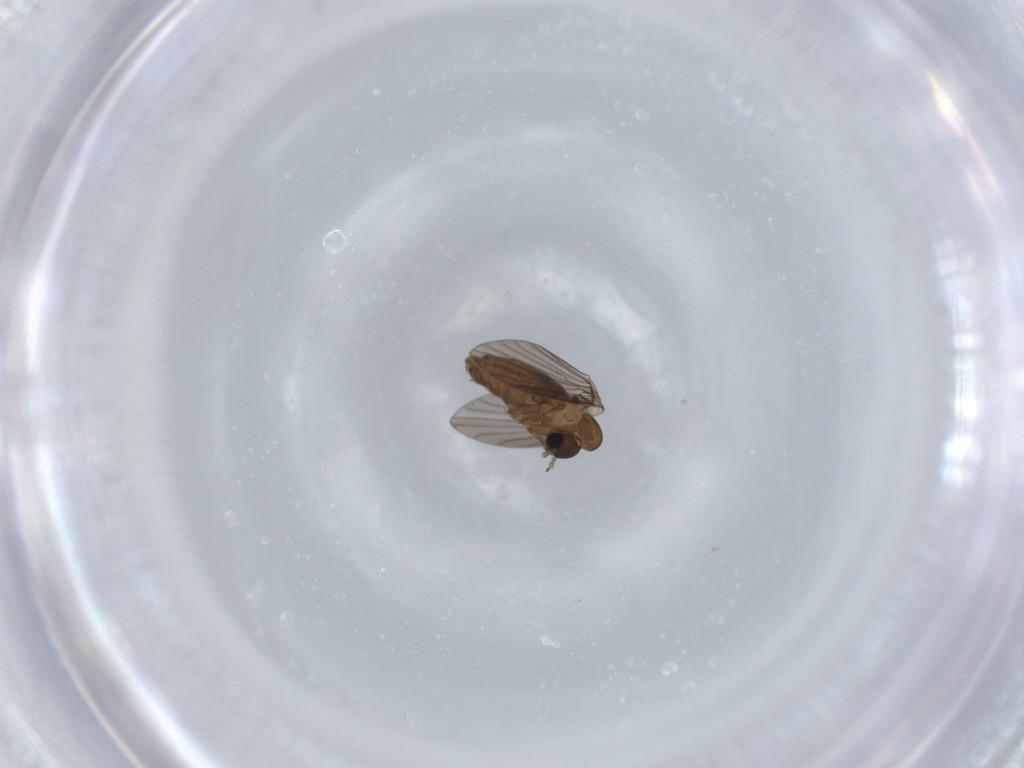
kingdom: Animalia
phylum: Arthropoda
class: Insecta
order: Diptera
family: Psychodidae
